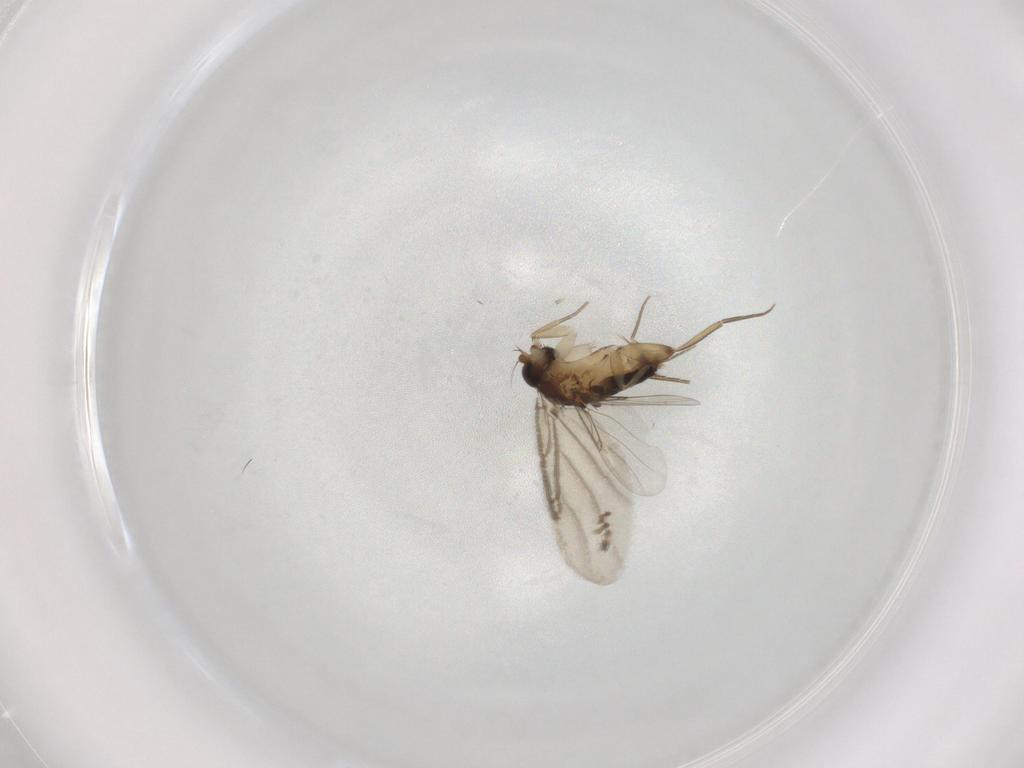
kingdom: Animalia
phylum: Arthropoda
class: Insecta
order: Diptera
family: Phoridae
